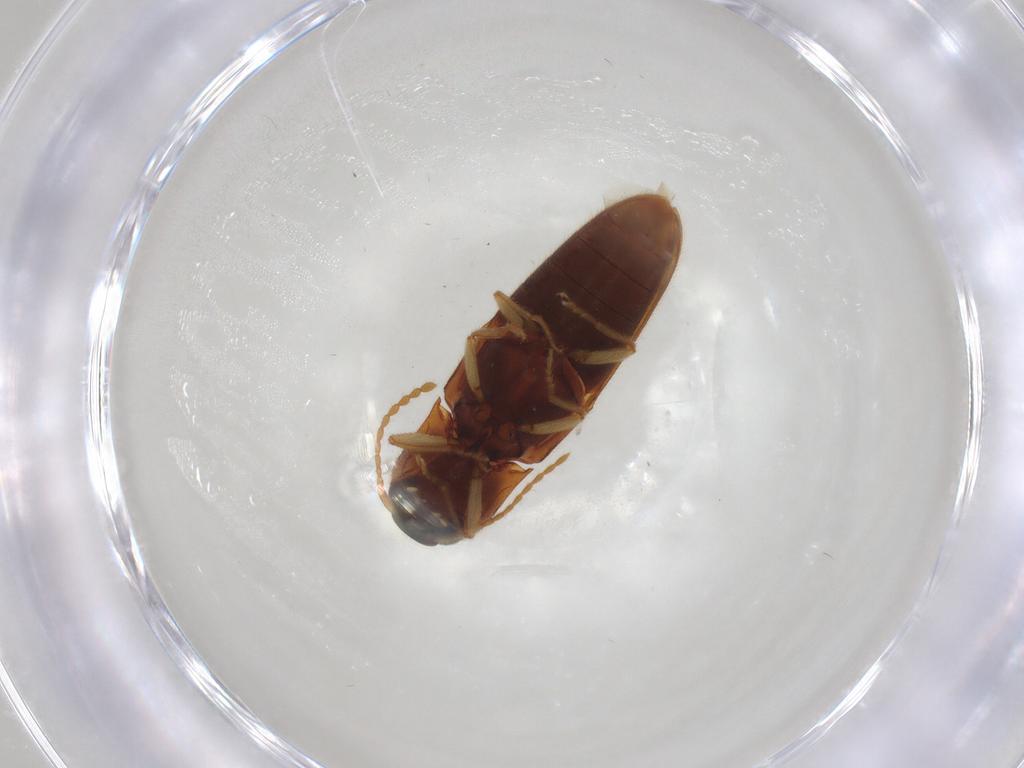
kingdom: Animalia
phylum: Arthropoda
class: Insecta
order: Coleoptera
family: Elateridae
